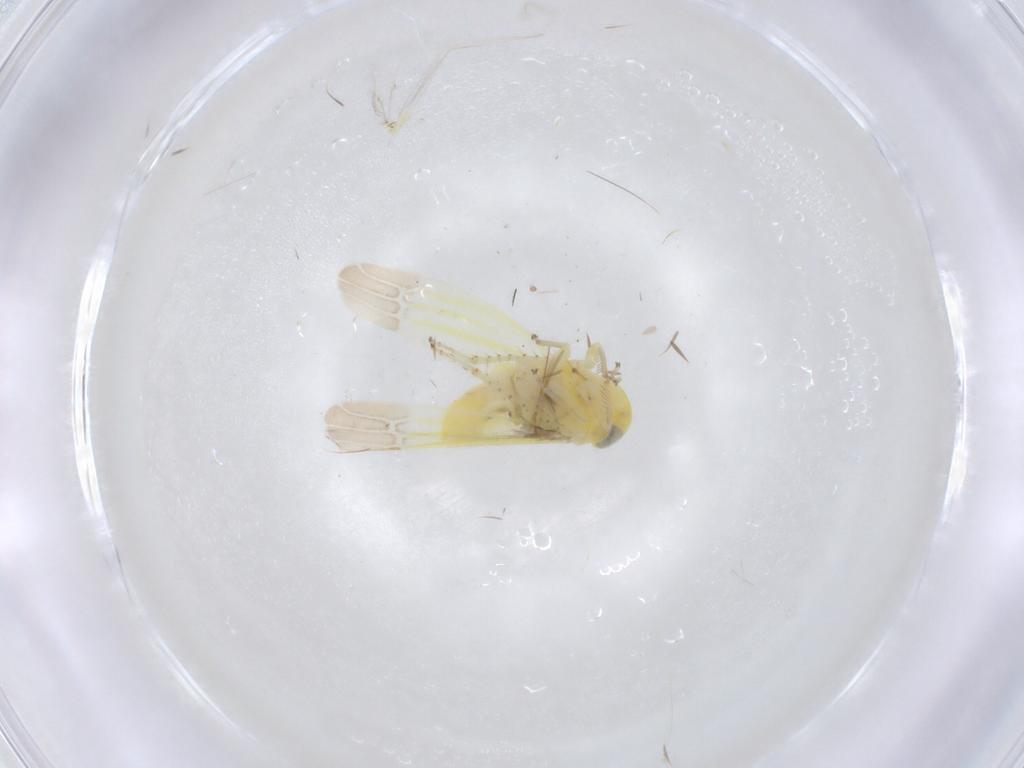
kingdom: Animalia
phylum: Arthropoda
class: Insecta
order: Hemiptera
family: Cicadellidae
